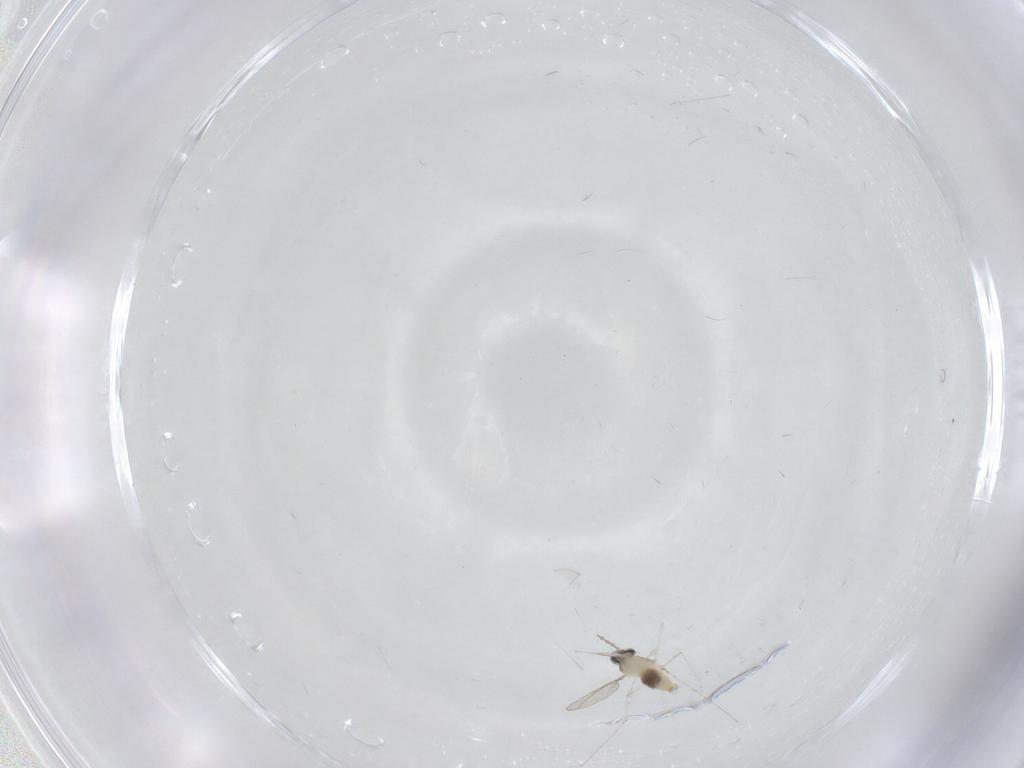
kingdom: Animalia
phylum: Arthropoda
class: Insecta
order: Diptera
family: Cecidomyiidae
